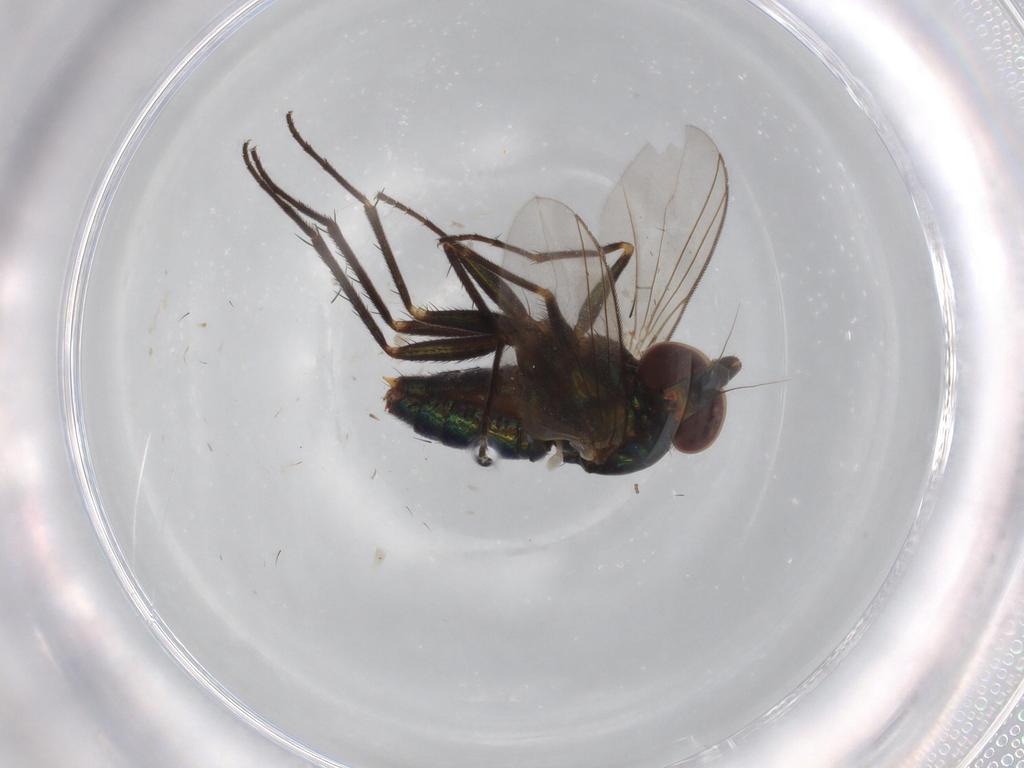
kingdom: Animalia
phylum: Arthropoda
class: Insecta
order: Diptera
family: Dolichopodidae
